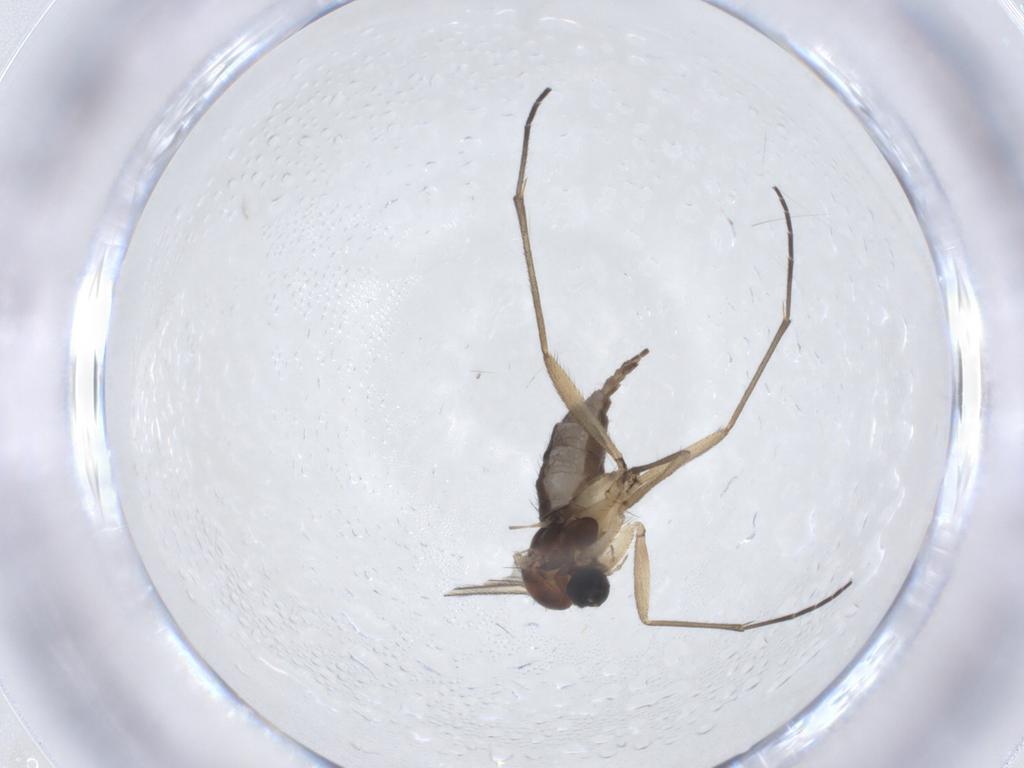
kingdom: Animalia
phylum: Arthropoda
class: Insecta
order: Diptera
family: Sciaridae
